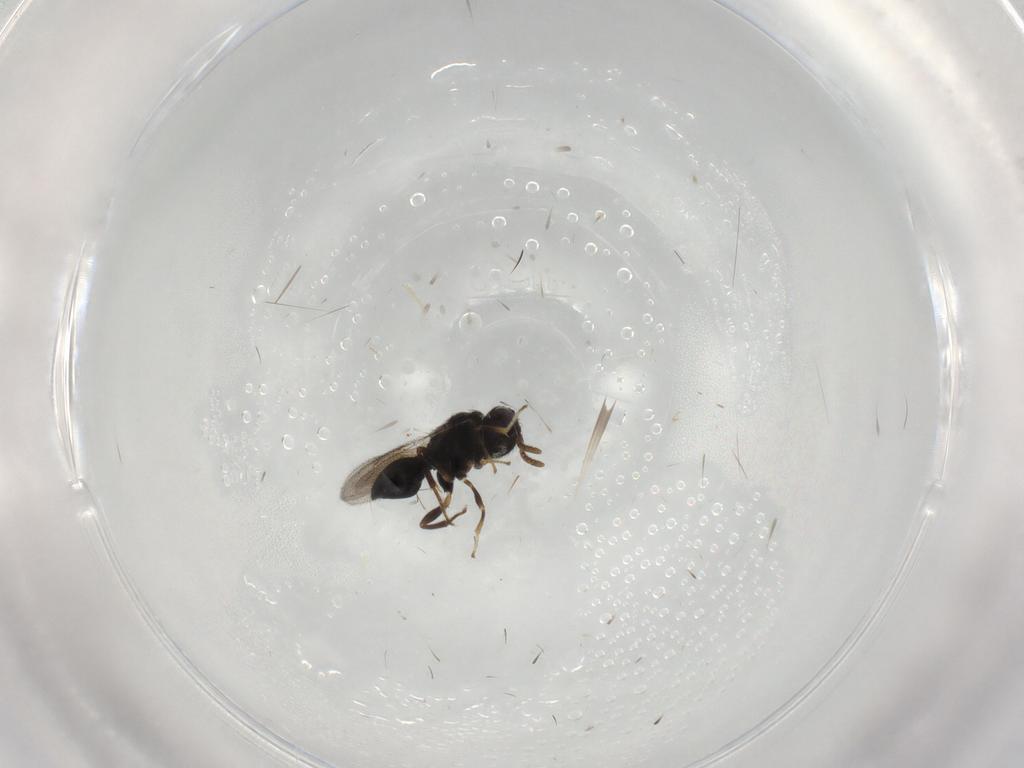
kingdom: Animalia
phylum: Arthropoda
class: Insecta
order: Hymenoptera
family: Pteromalidae
